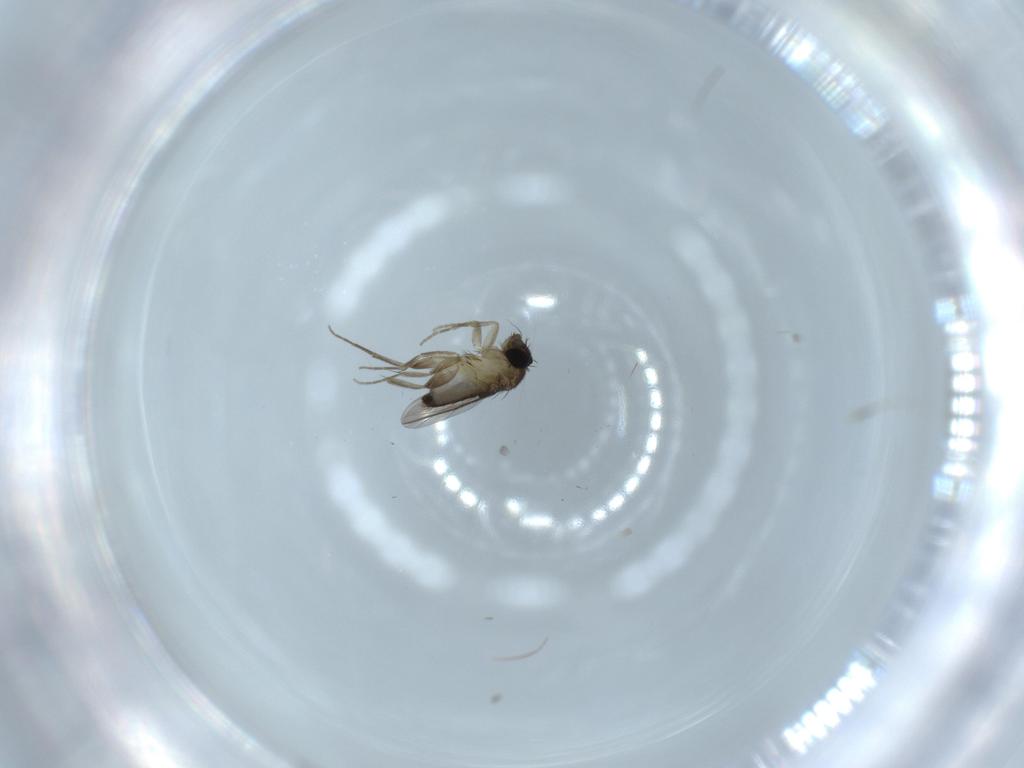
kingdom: Animalia
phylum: Arthropoda
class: Insecta
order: Diptera
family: Phoridae
